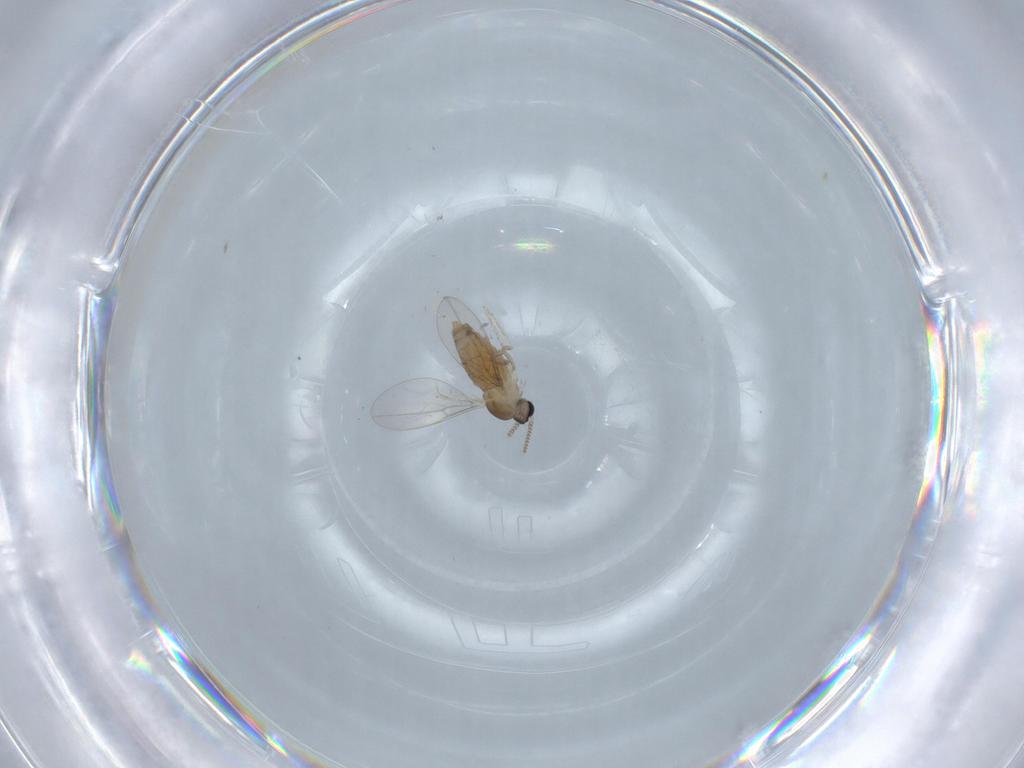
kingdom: Animalia
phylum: Arthropoda
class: Insecta
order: Diptera
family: Cecidomyiidae
